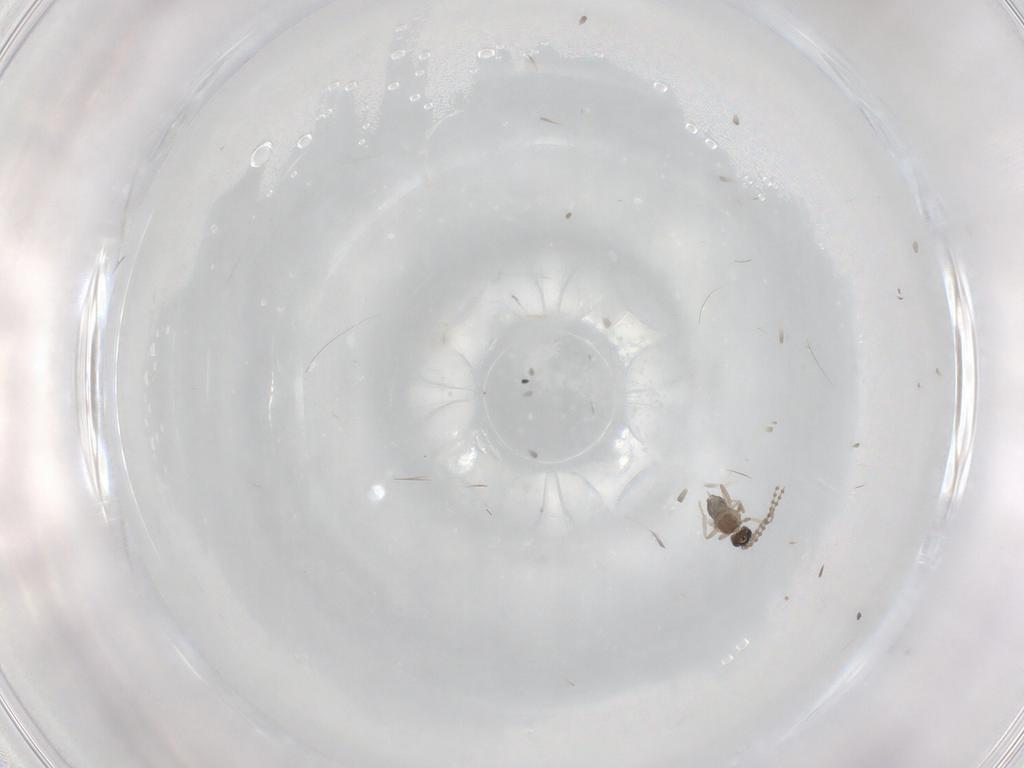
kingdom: Animalia
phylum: Arthropoda
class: Insecta
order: Diptera
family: Cecidomyiidae
